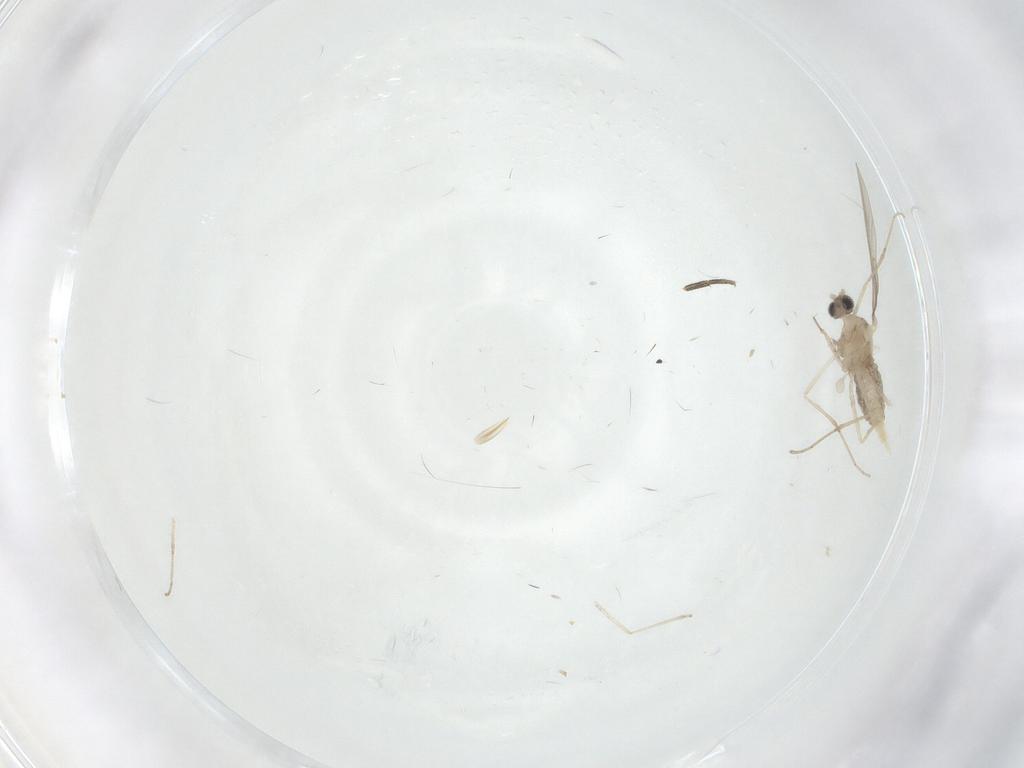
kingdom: Animalia
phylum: Arthropoda
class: Insecta
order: Diptera
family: Cecidomyiidae
